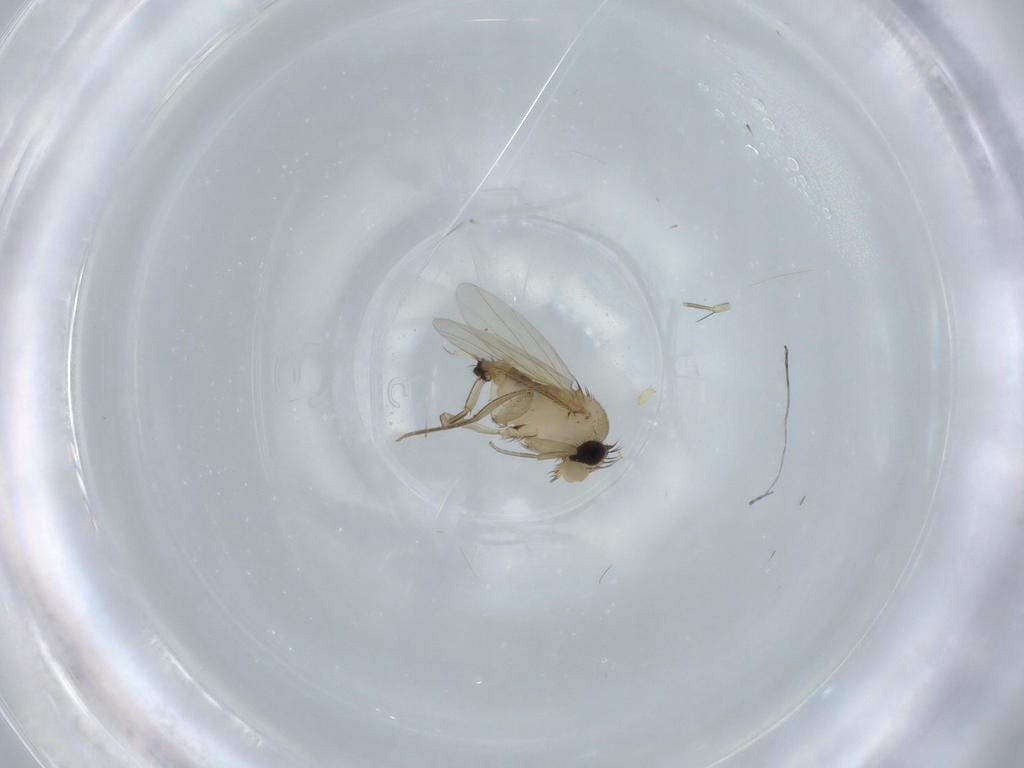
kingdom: Animalia
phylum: Arthropoda
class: Insecta
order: Diptera
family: Phoridae
